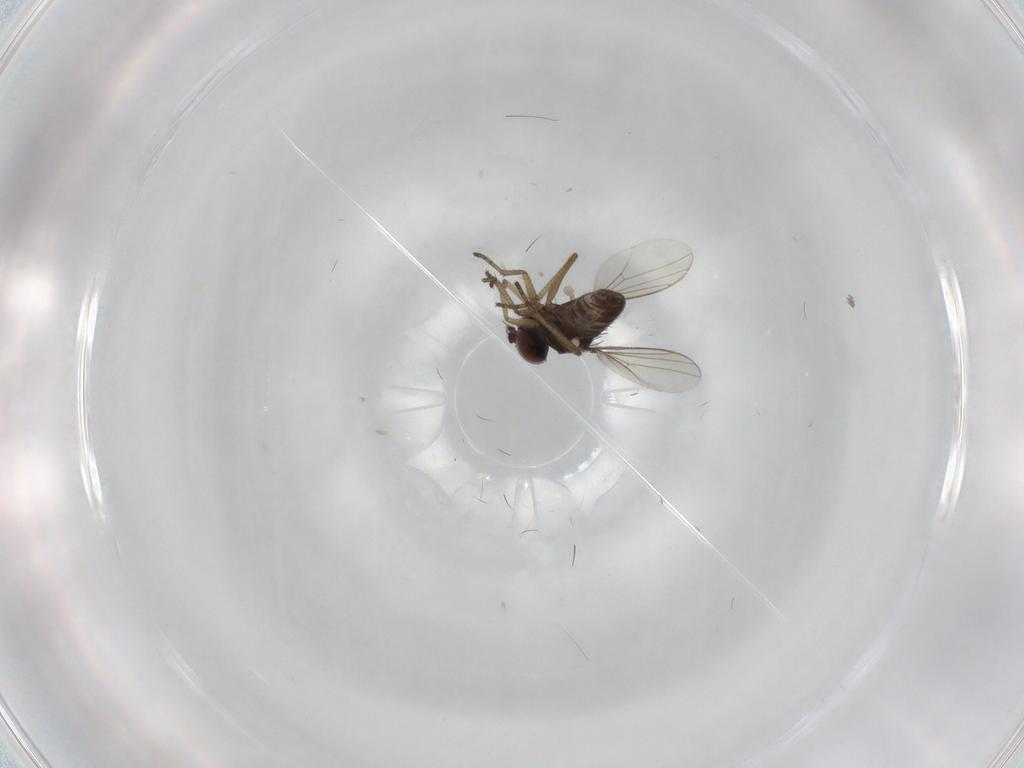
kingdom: Animalia
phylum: Arthropoda
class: Insecta
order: Diptera
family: Dolichopodidae
